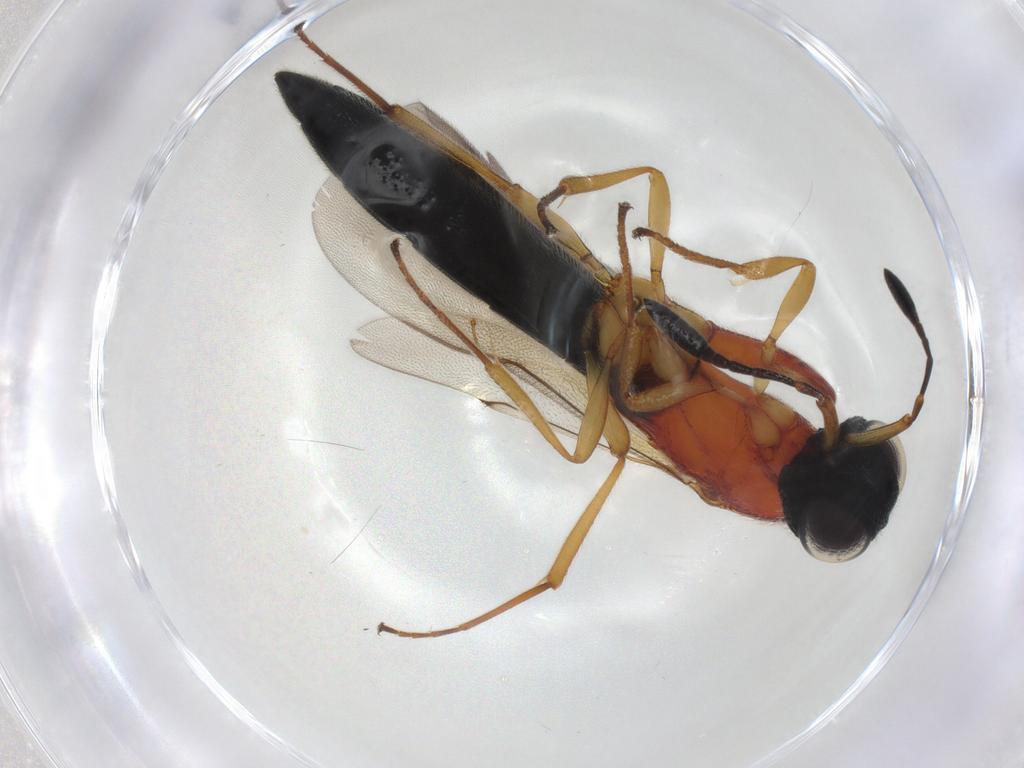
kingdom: Animalia
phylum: Arthropoda
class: Insecta
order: Hymenoptera
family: Scelionidae
